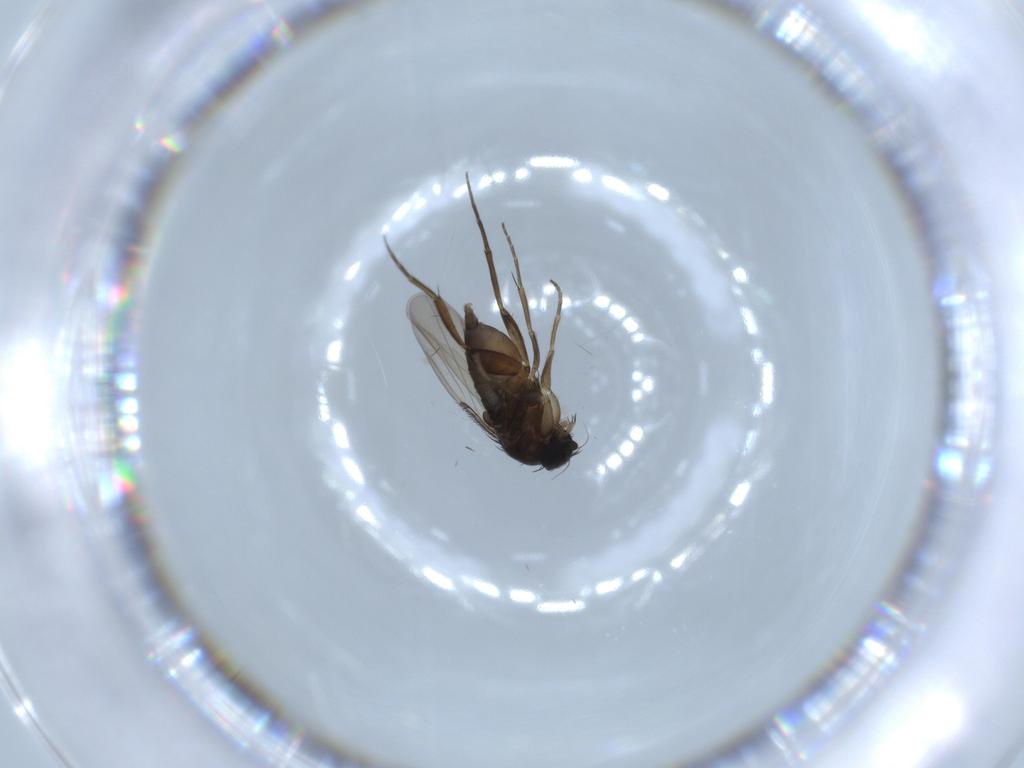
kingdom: Animalia
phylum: Arthropoda
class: Insecta
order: Diptera
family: Phoridae
